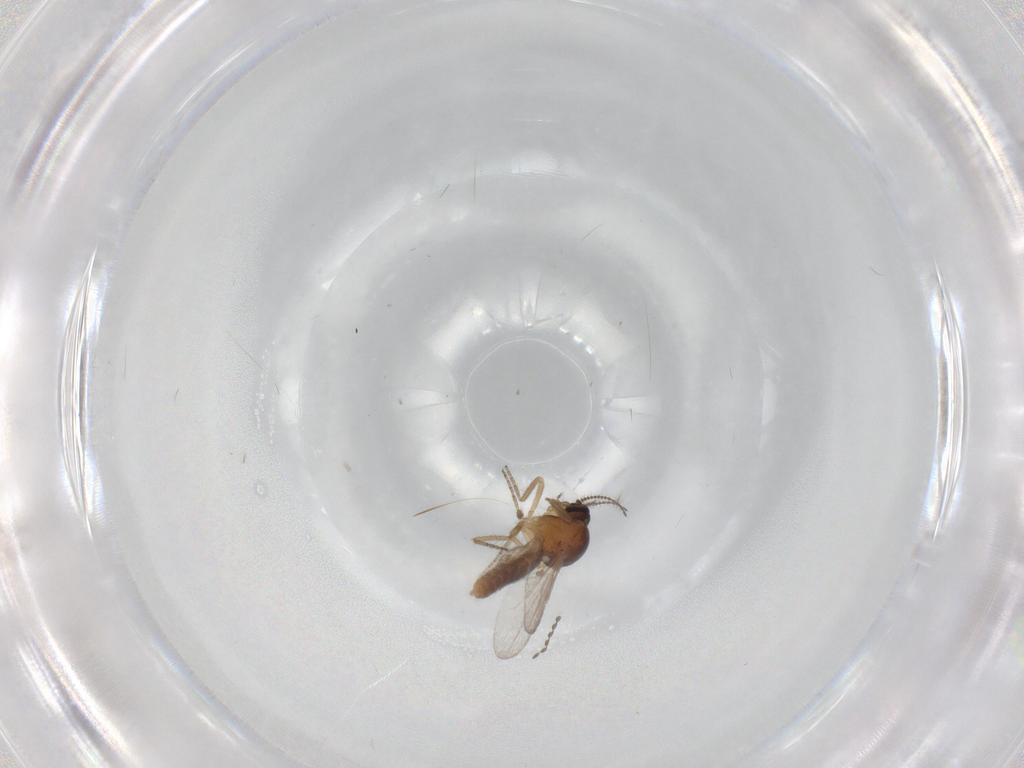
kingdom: Animalia
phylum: Arthropoda
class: Insecta
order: Diptera
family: Ceratopogonidae
